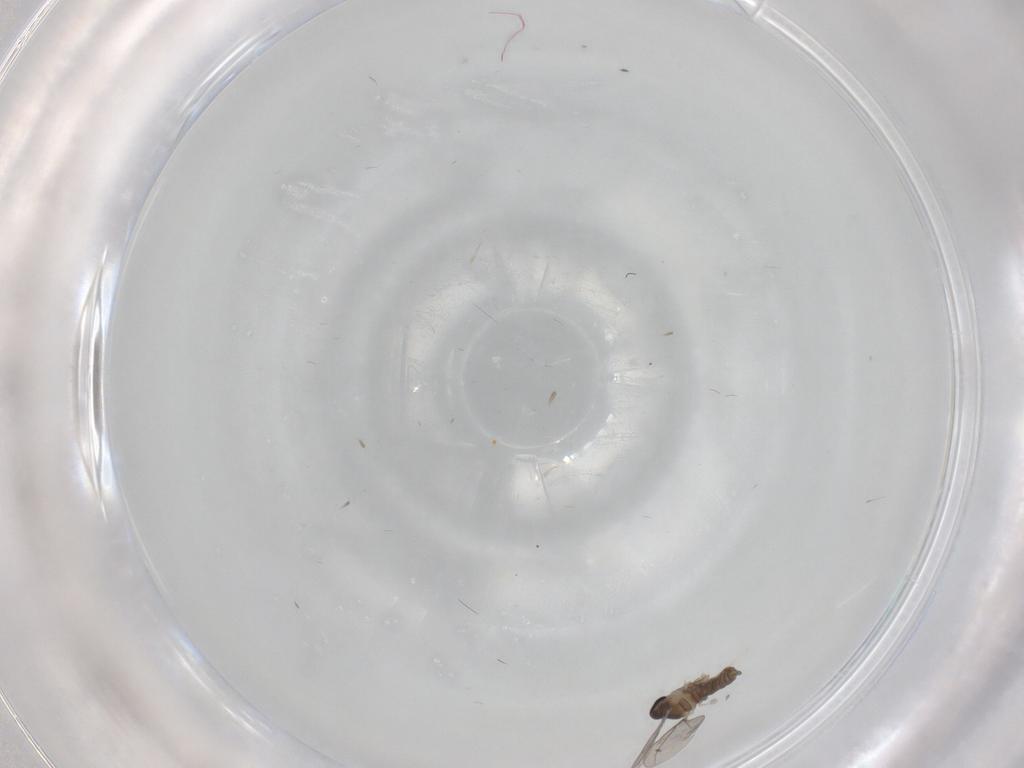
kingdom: Animalia
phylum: Arthropoda
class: Insecta
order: Diptera
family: Cecidomyiidae
